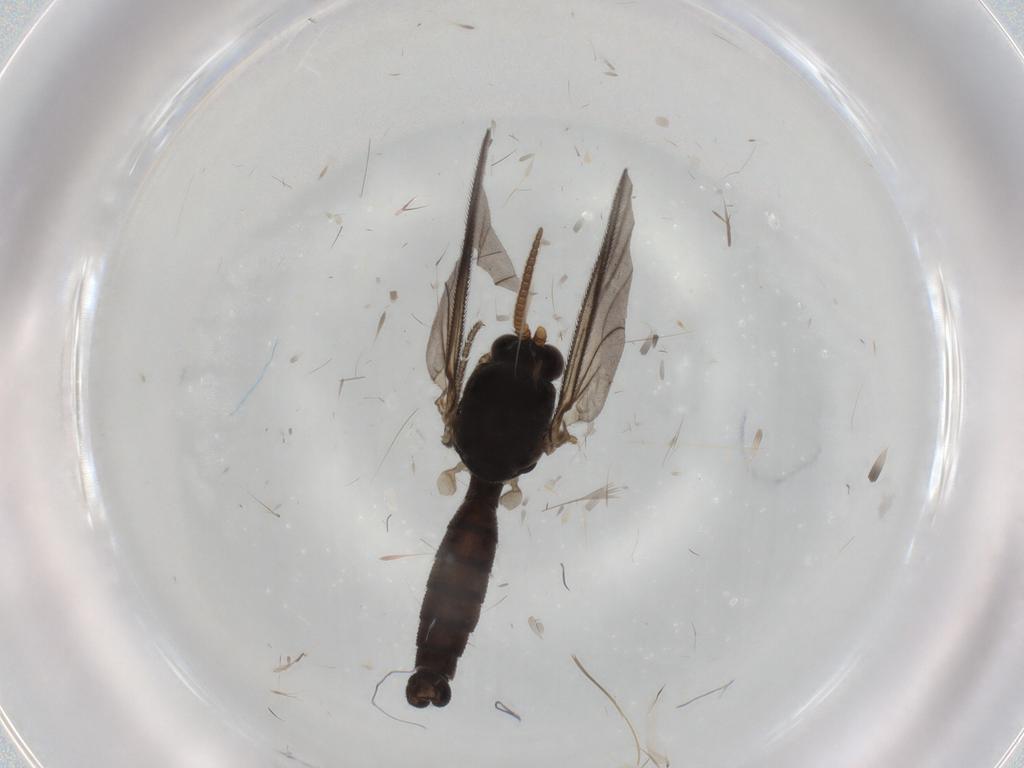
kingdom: Animalia
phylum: Arthropoda
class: Insecta
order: Diptera
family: Mycetophilidae
